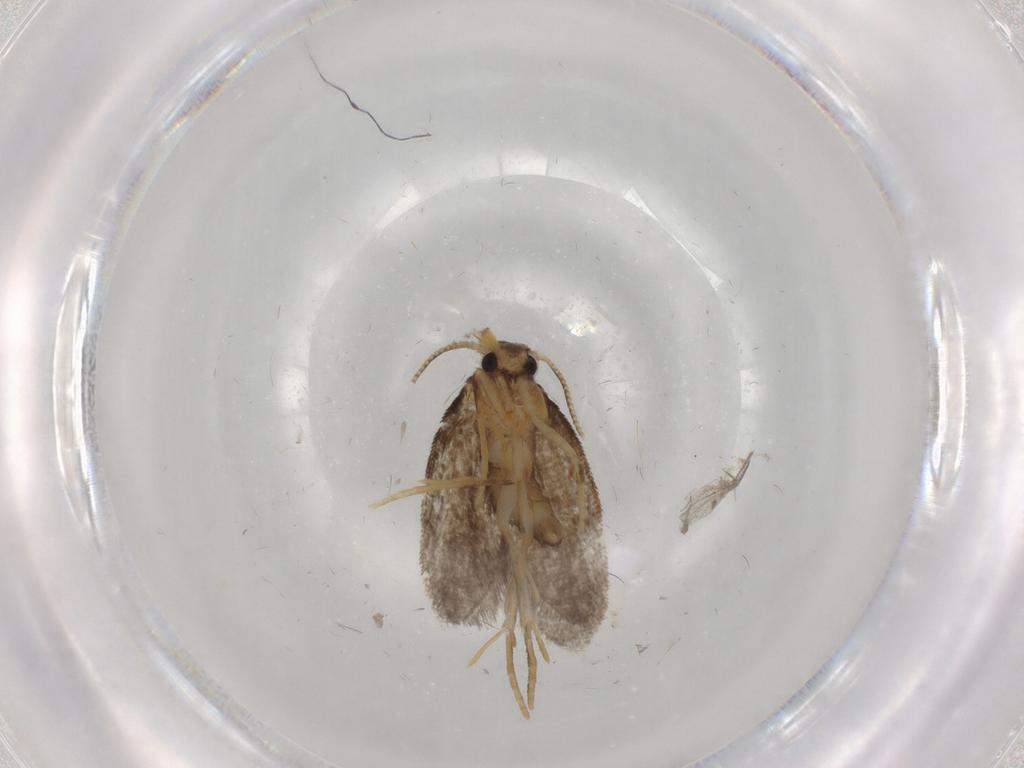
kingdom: Animalia
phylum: Arthropoda
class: Insecta
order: Lepidoptera
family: Psychidae
